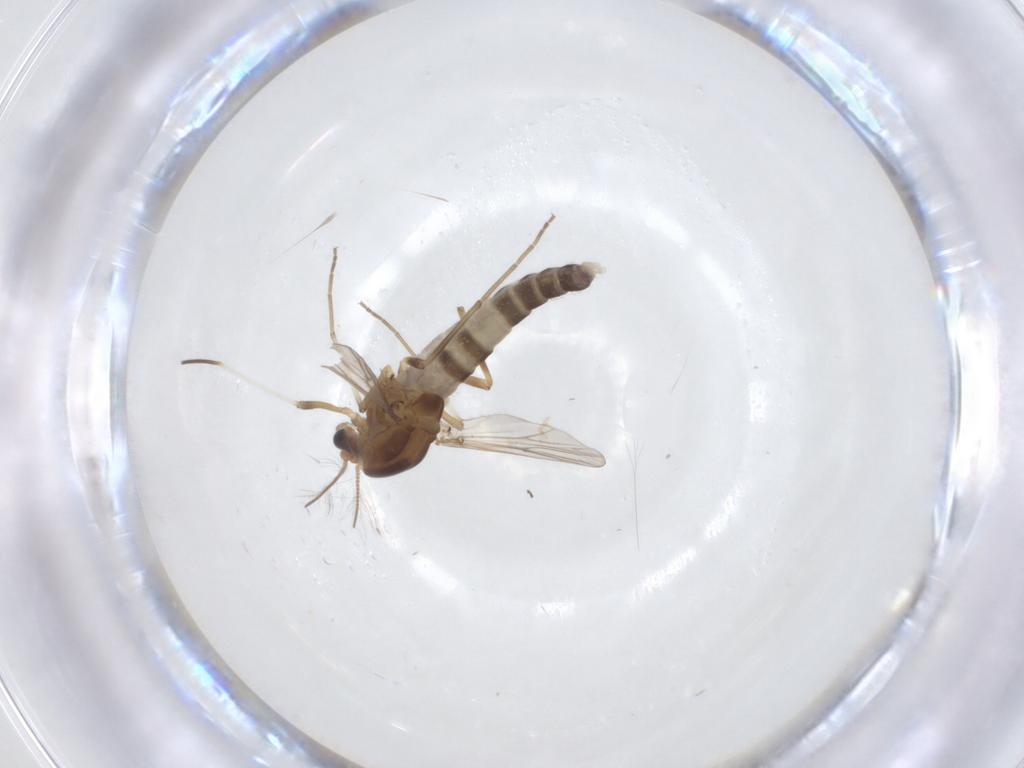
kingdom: Animalia
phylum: Arthropoda
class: Insecta
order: Diptera
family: Chironomidae
